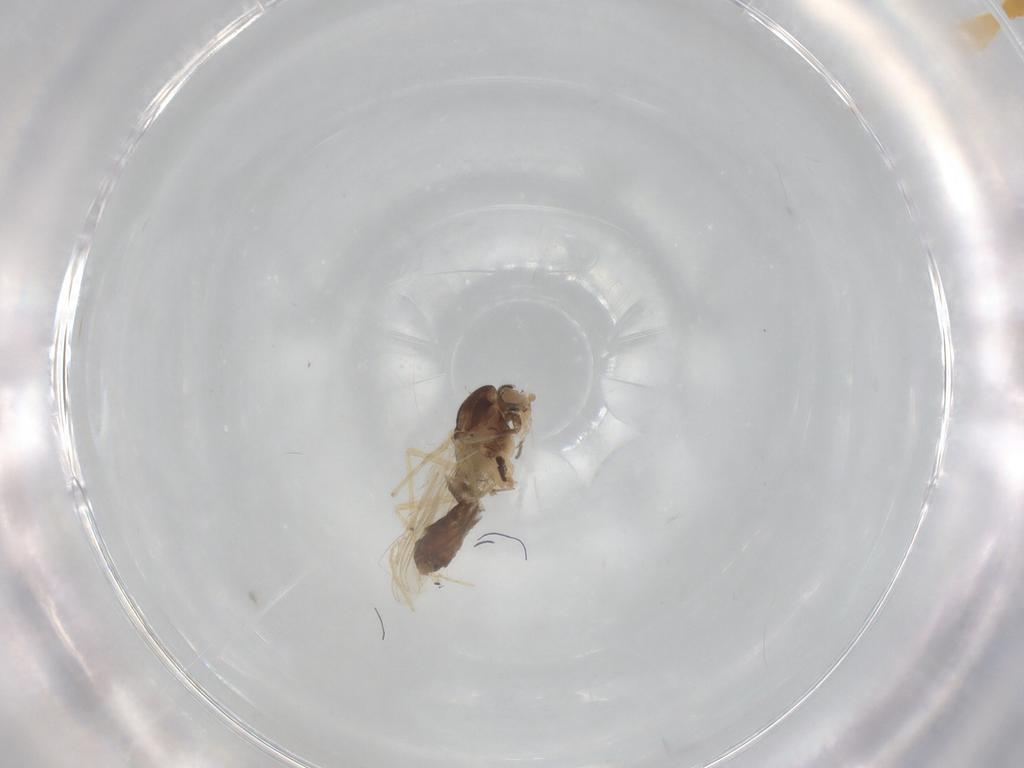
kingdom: Animalia
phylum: Arthropoda
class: Insecta
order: Diptera
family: Chironomidae
